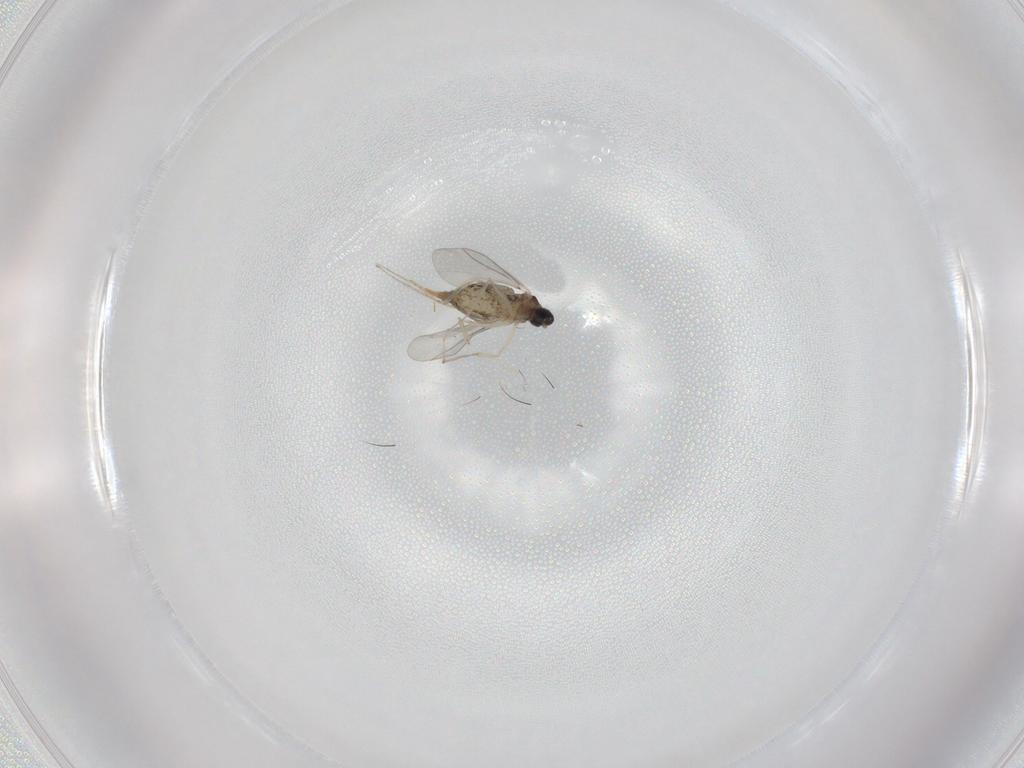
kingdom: Animalia
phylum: Arthropoda
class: Insecta
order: Diptera
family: Cecidomyiidae
